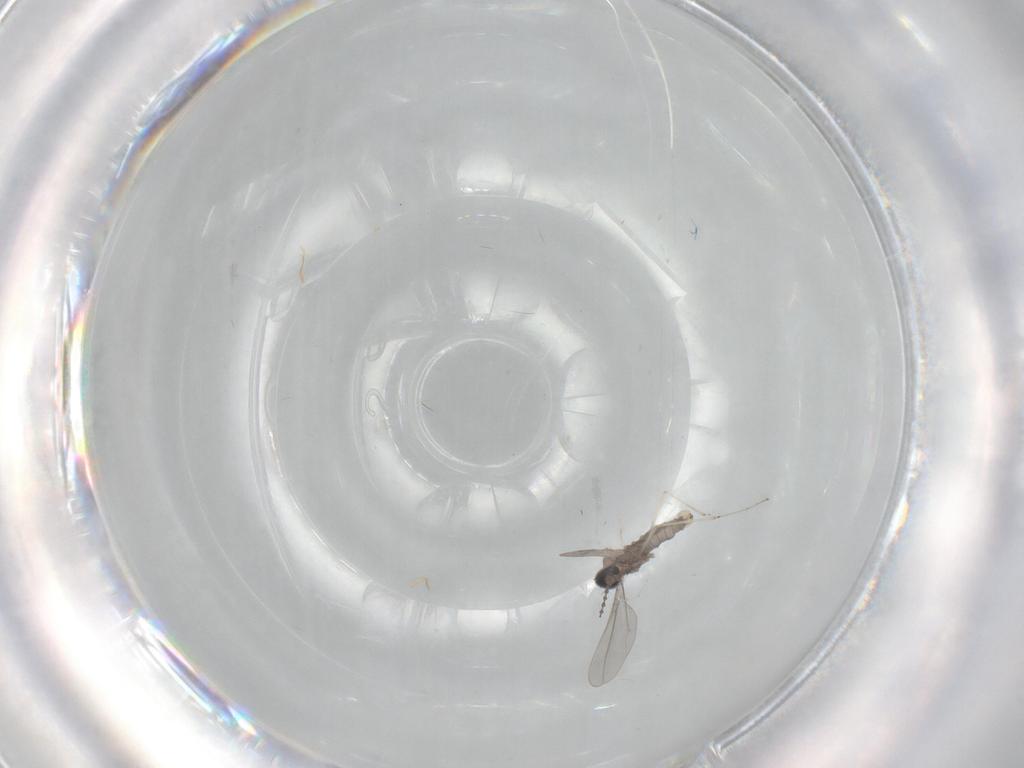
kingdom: Animalia
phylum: Arthropoda
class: Insecta
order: Diptera
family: Cecidomyiidae
